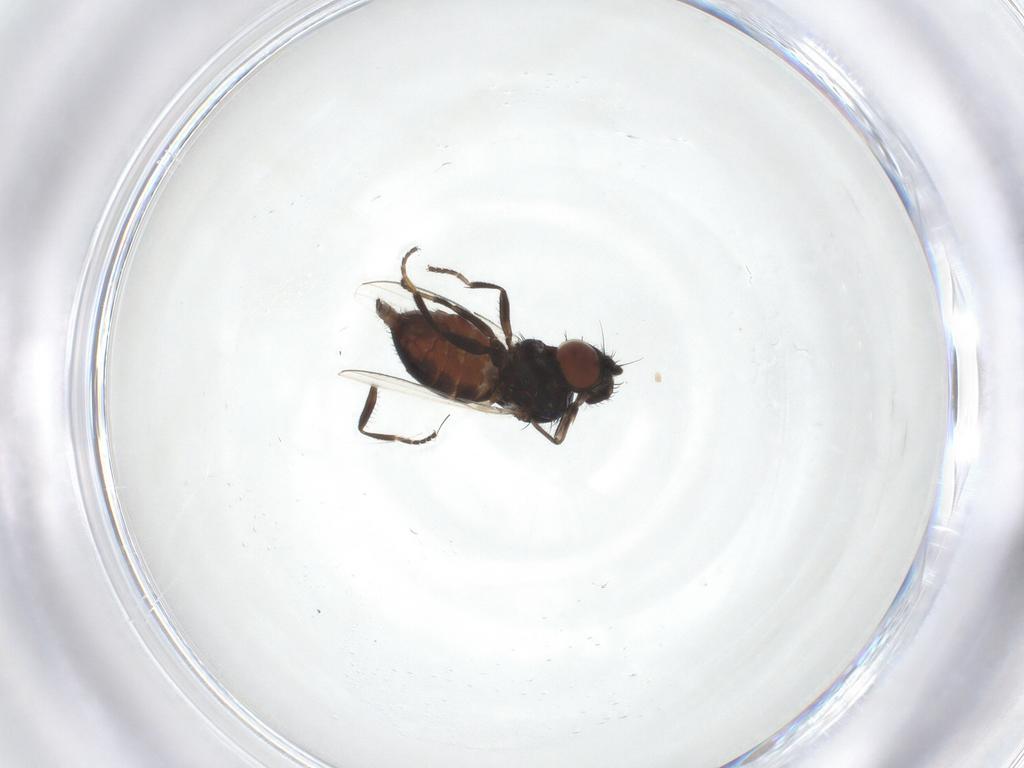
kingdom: Animalia
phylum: Arthropoda
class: Insecta
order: Diptera
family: Milichiidae
